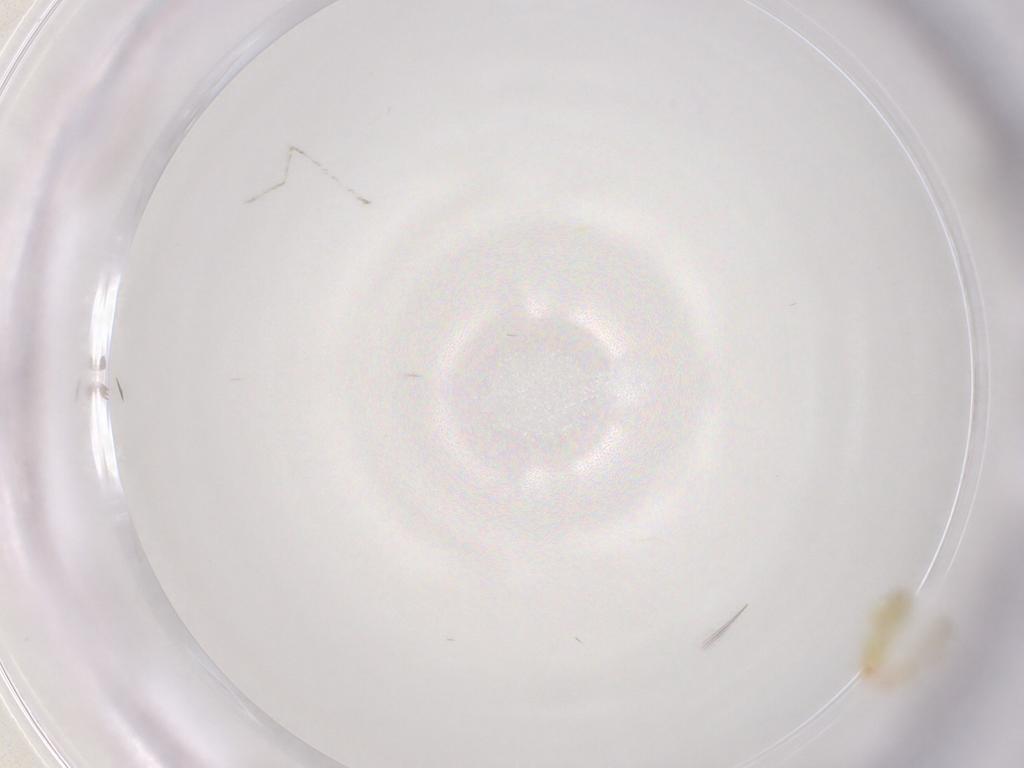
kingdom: Animalia
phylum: Arthropoda
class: Insecta
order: Hemiptera
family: Aleyrodidae
